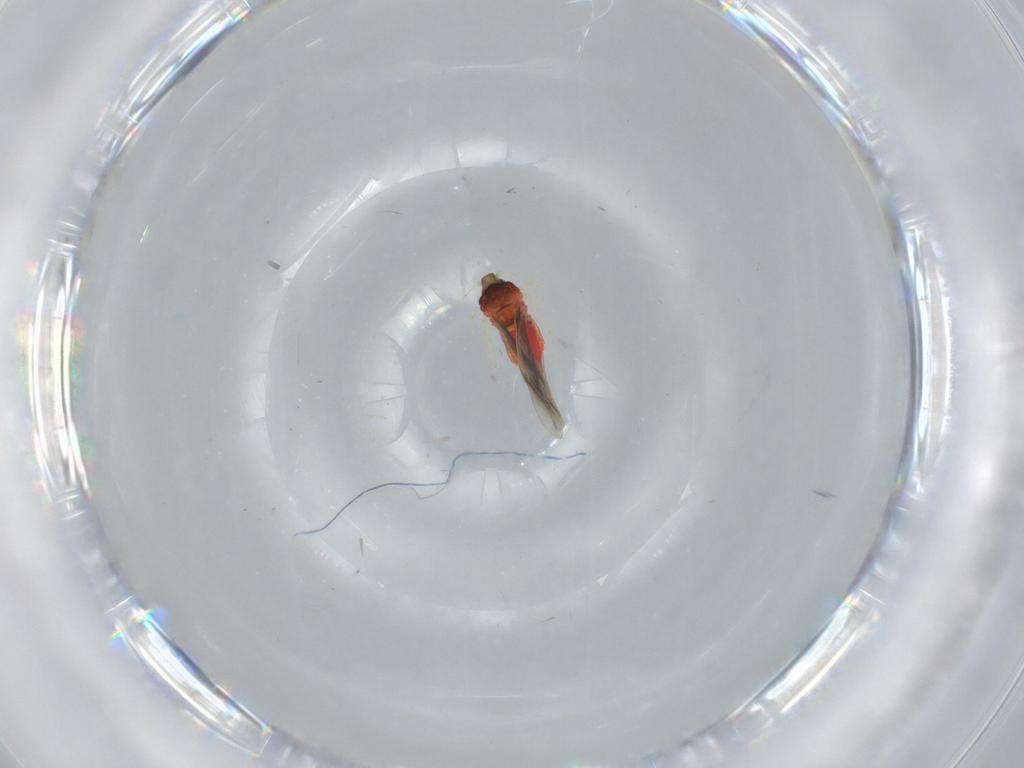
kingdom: Animalia
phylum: Arthropoda
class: Insecta
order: Hemiptera
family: Aleyrodidae
